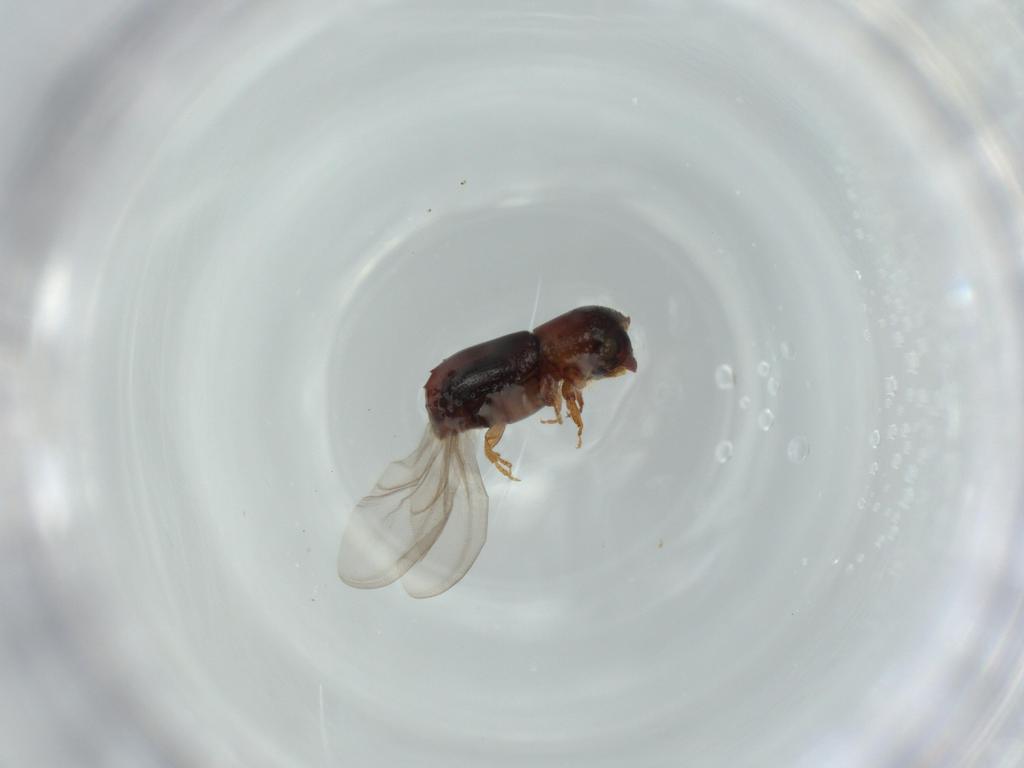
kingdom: Animalia
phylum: Arthropoda
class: Insecta
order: Coleoptera
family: Curculionidae
